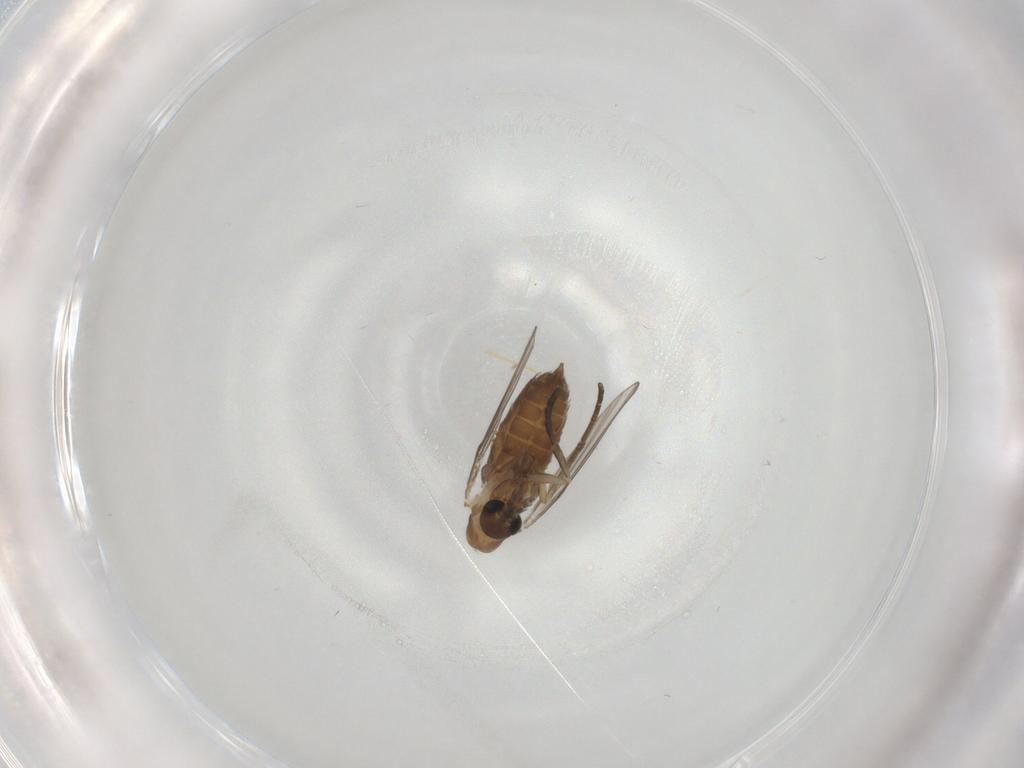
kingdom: Animalia
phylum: Arthropoda
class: Insecta
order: Diptera
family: Psychodidae
